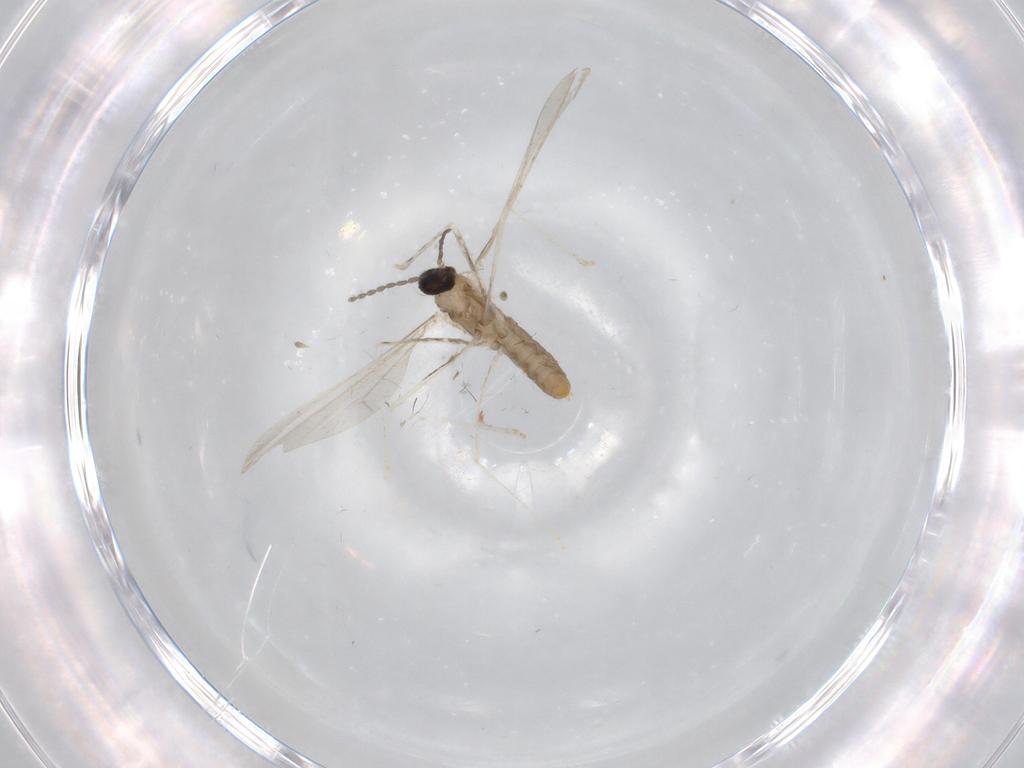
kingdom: Animalia
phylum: Arthropoda
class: Insecta
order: Diptera
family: Cecidomyiidae
